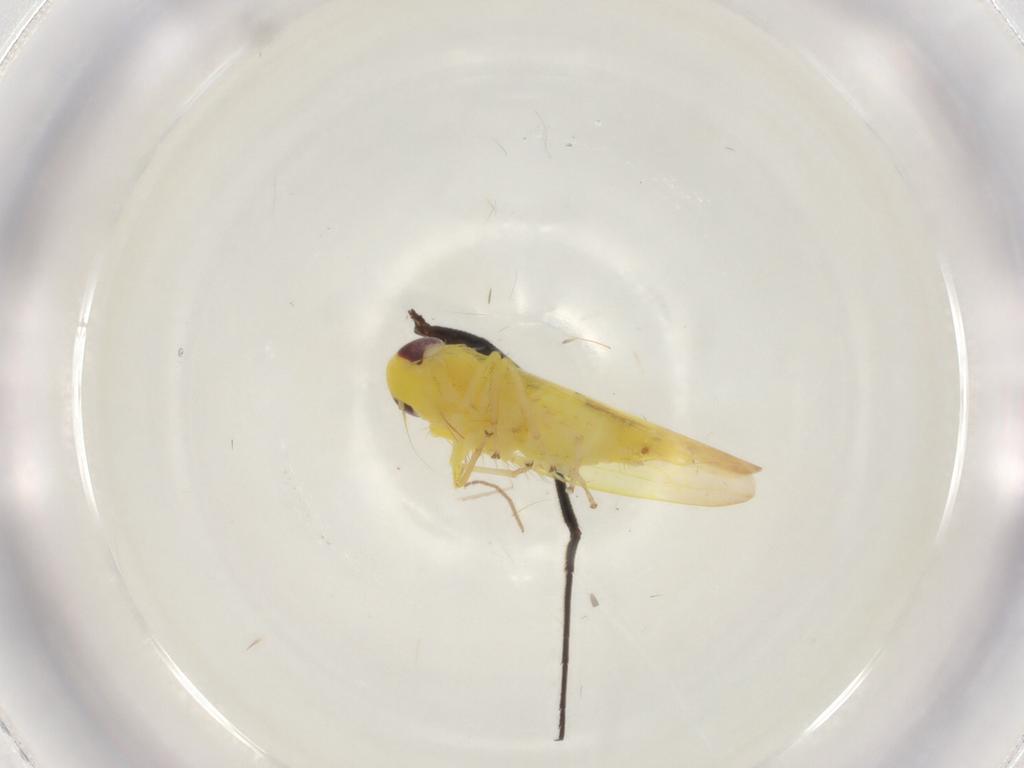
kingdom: Animalia
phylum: Arthropoda
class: Insecta
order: Hemiptera
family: Cicadellidae
